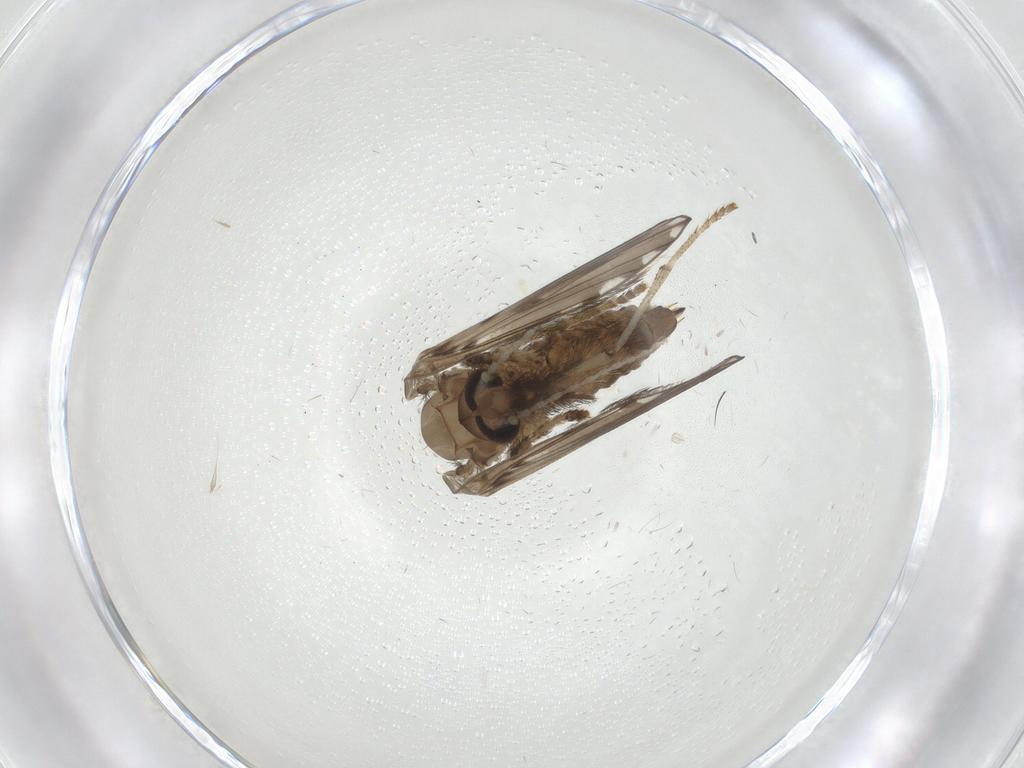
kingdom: Animalia
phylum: Arthropoda
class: Insecta
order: Diptera
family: Psychodidae
